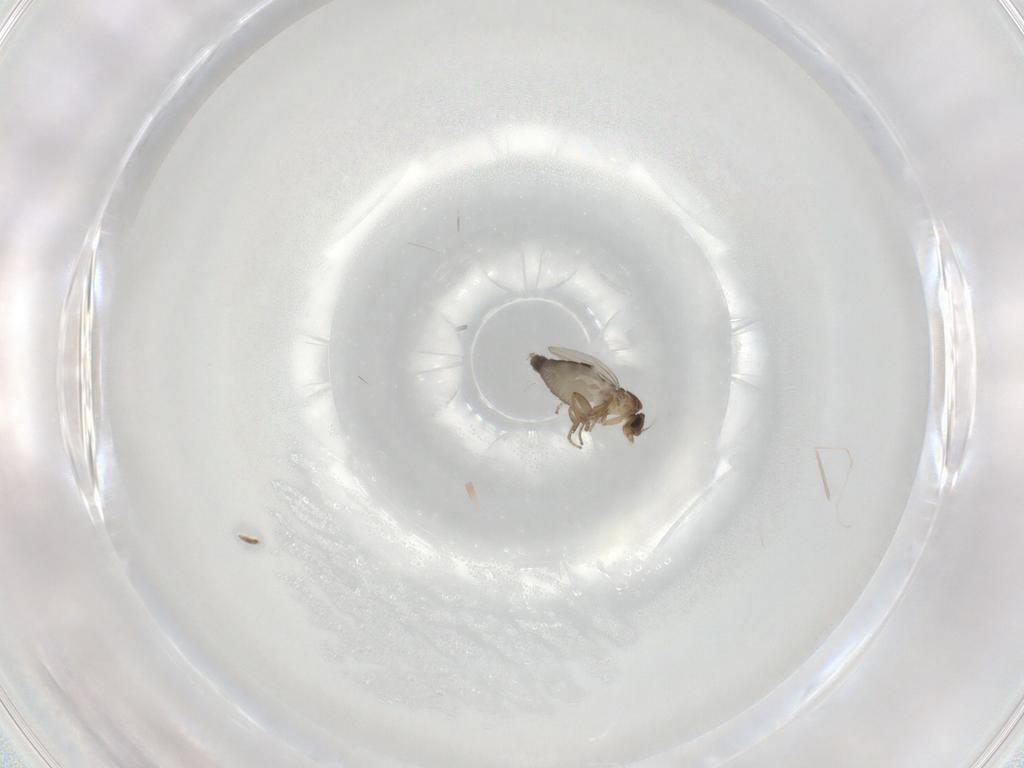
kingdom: Animalia
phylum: Arthropoda
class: Insecta
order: Diptera
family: Phoridae
